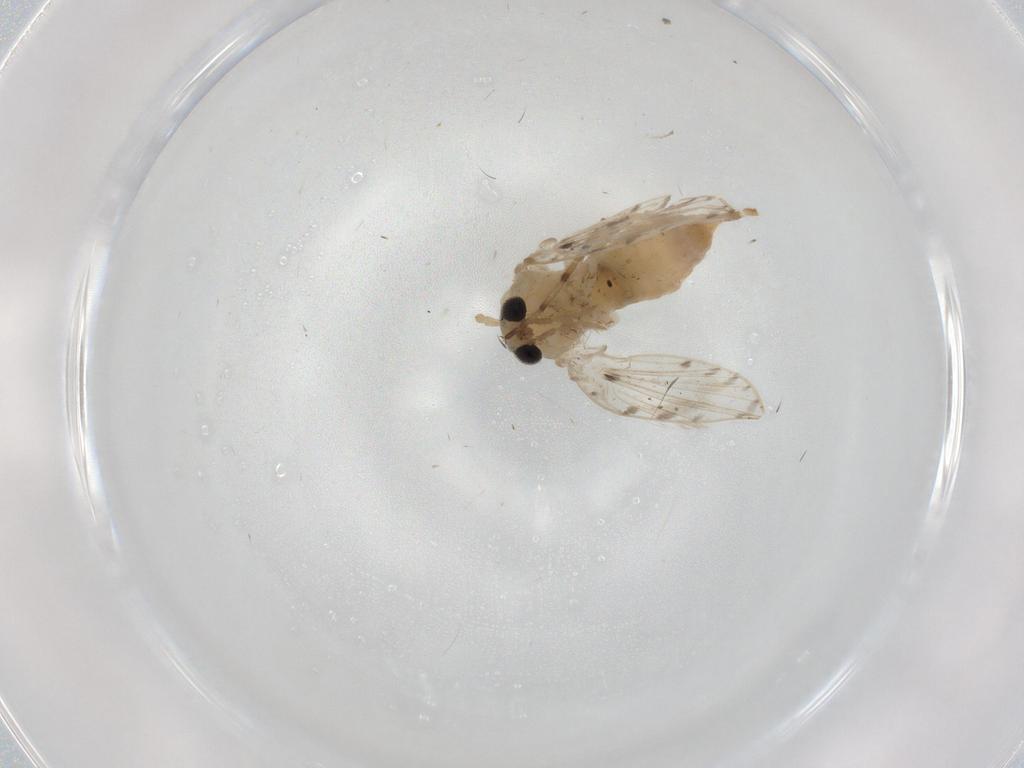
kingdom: Animalia
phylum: Arthropoda
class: Insecta
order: Diptera
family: Psychodidae
